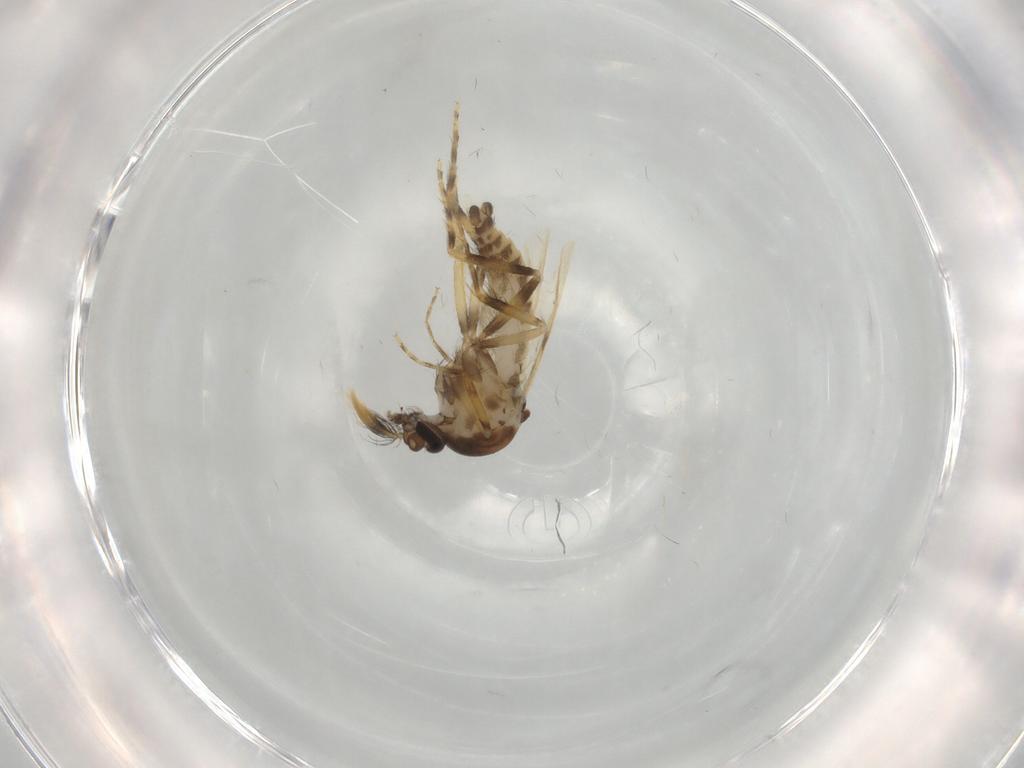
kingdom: Animalia
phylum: Arthropoda
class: Insecta
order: Diptera
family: Ceratopogonidae
